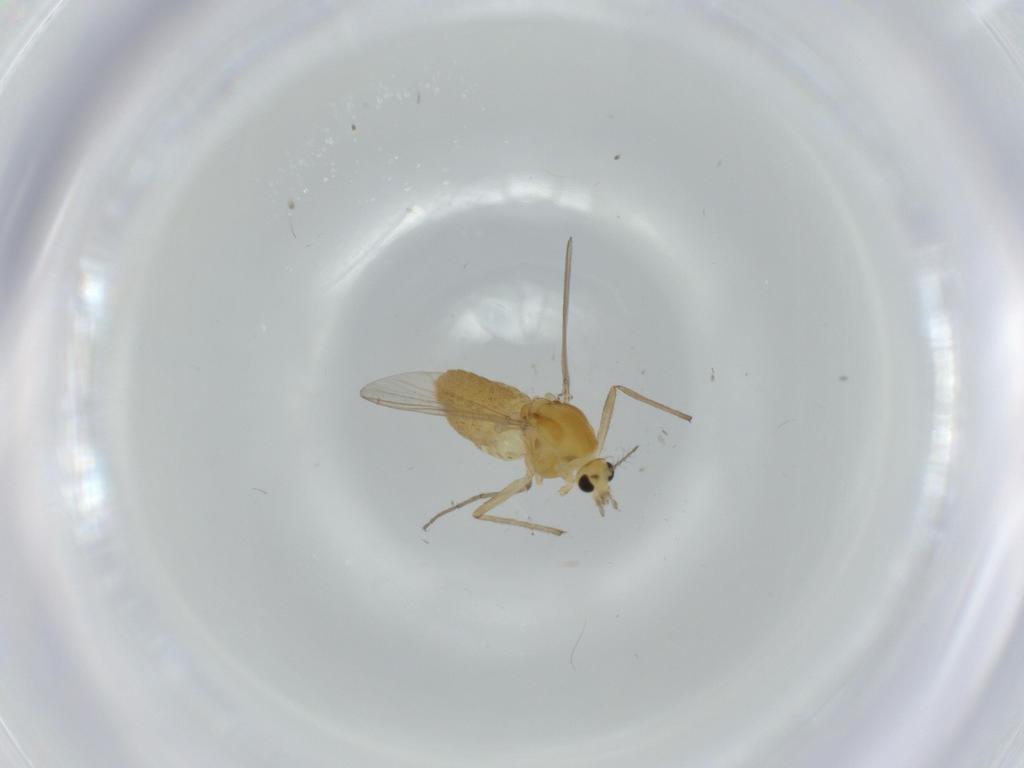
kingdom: Animalia
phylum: Arthropoda
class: Insecta
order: Diptera
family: Chironomidae
